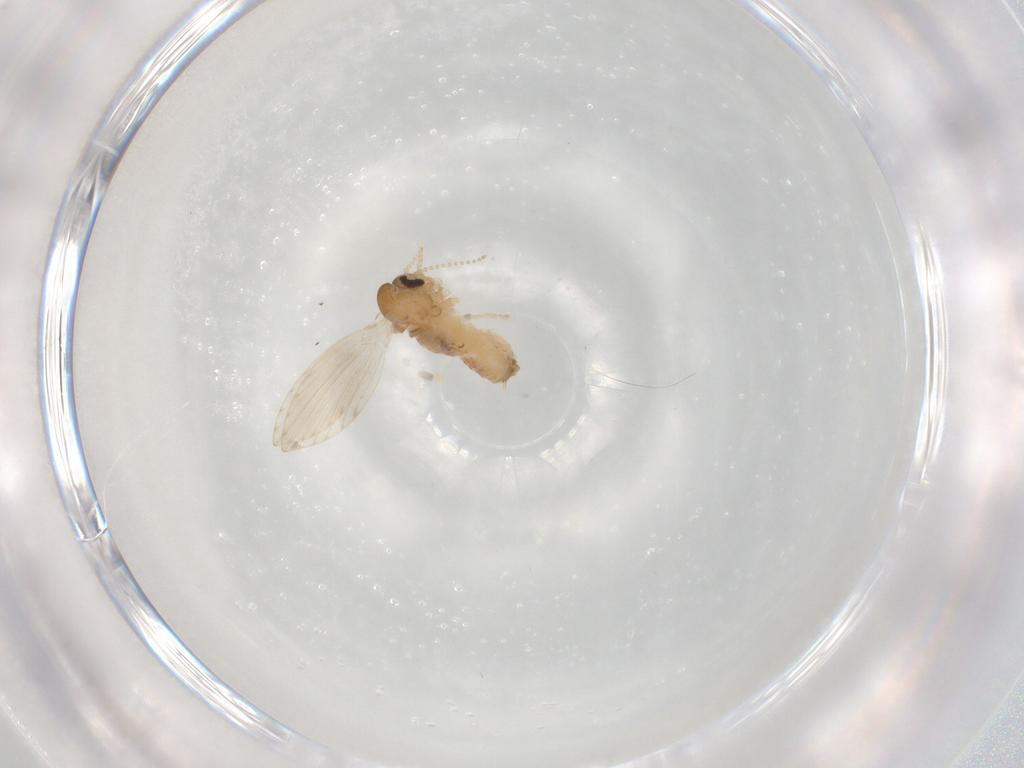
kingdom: Animalia
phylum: Arthropoda
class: Insecta
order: Diptera
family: Psychodidae
